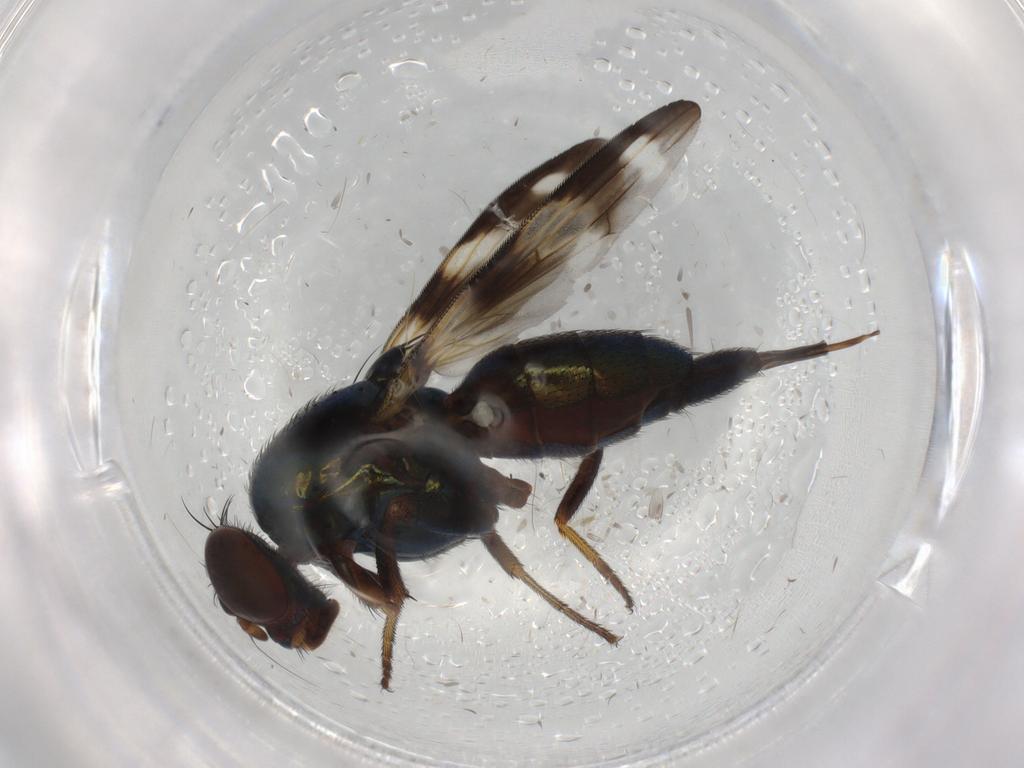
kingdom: Animalia
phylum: Arthropoda
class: Insecta
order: Diptera
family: Ulidiidae
